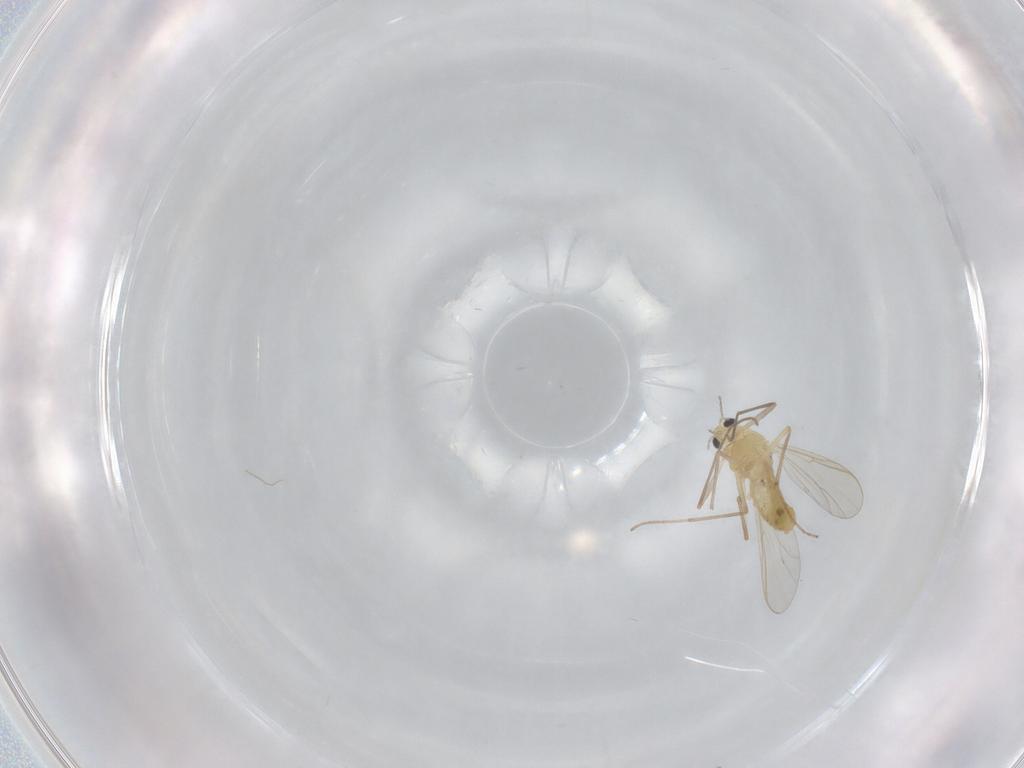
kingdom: Animalia
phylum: Arthropoda
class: Insecta
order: Diptera
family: Chironomidae
